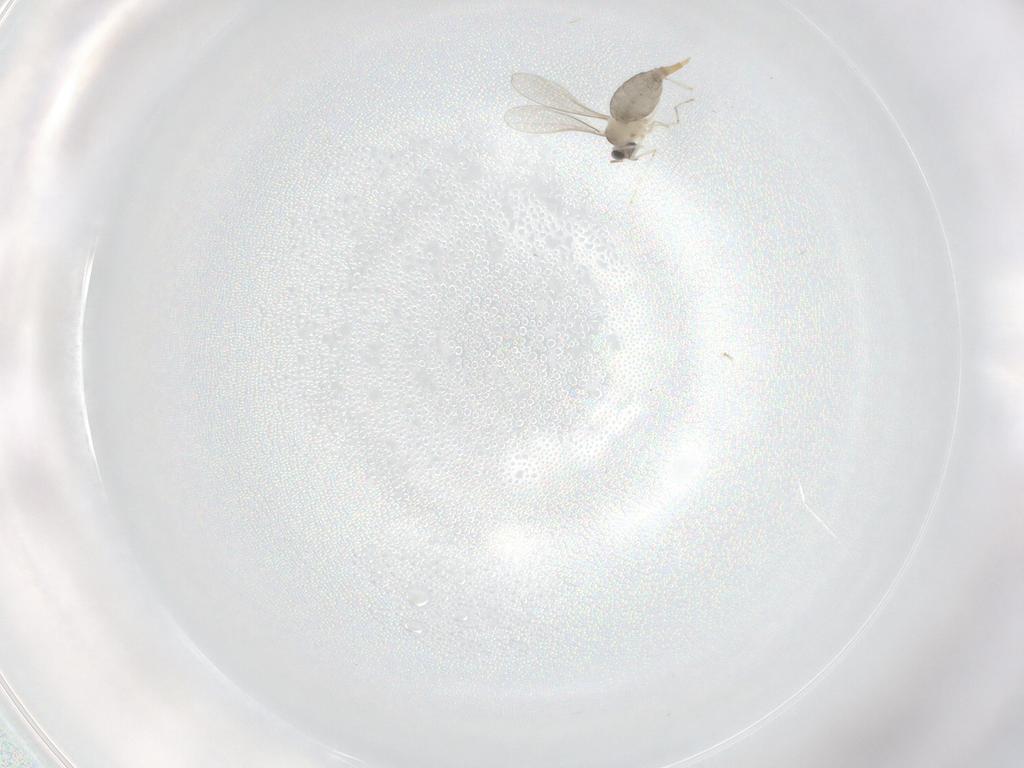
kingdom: Animalia
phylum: Arthropoda
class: Insecta
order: Diptera
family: Chironomidae
